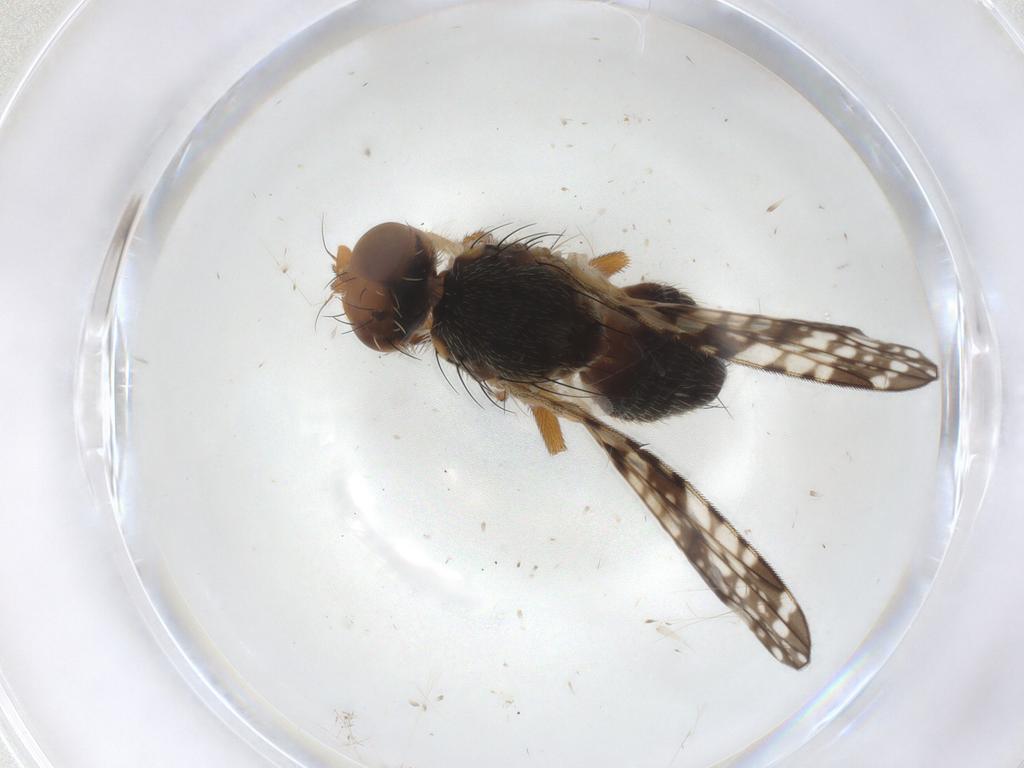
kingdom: Animalia
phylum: Arthropoda
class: Insecta
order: Diptera
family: Tephritidae
